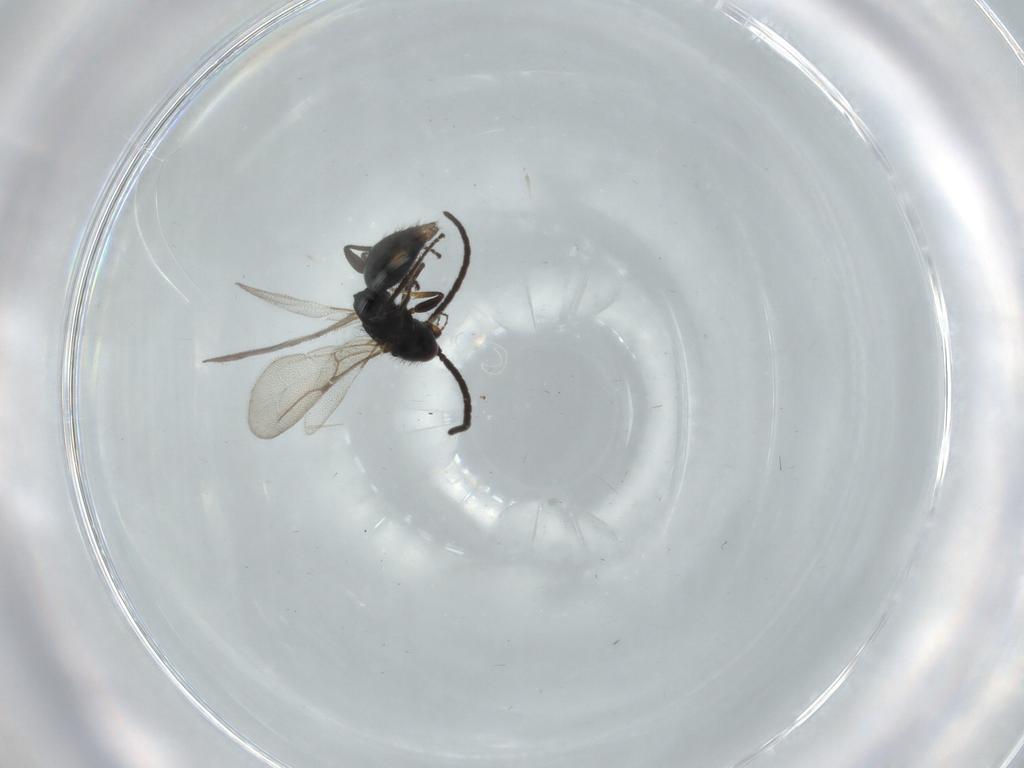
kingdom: Animalia
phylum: Arthropoda
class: Insecta
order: Hymenoptera
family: Bethylidae
